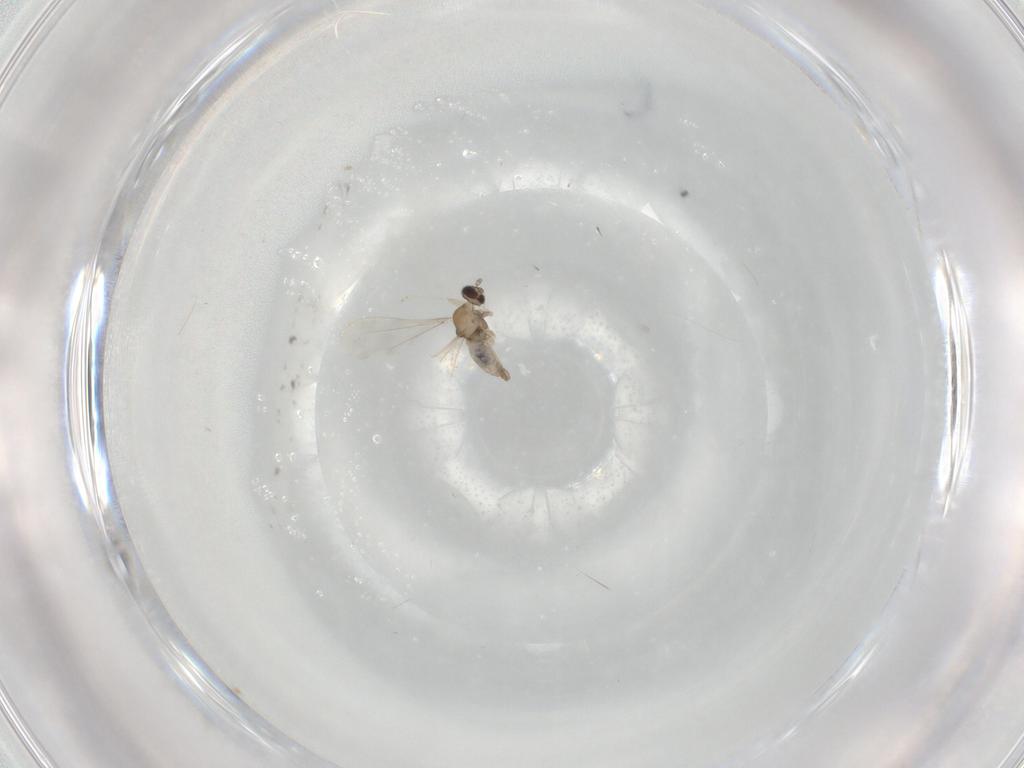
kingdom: Animalia
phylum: Arthropoda
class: Insecta
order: Diptera
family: Cecidomyiidae
